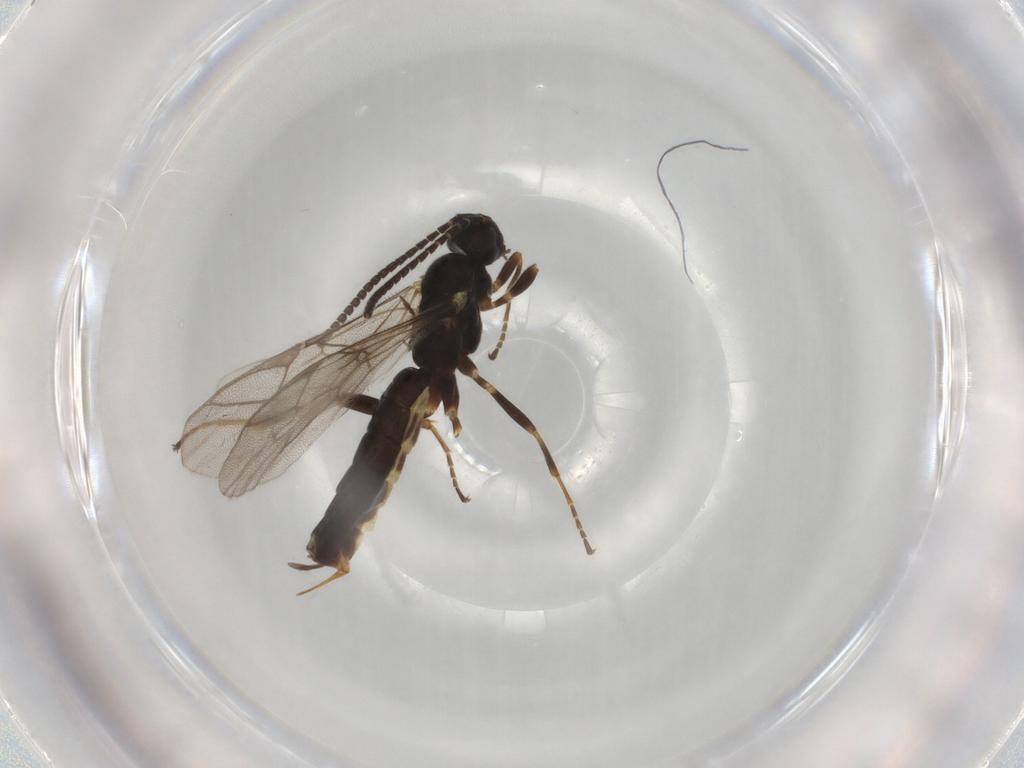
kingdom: Animalia
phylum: Arthropoda
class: Insecta
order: Hymenoptera
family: Ichneumonidae
